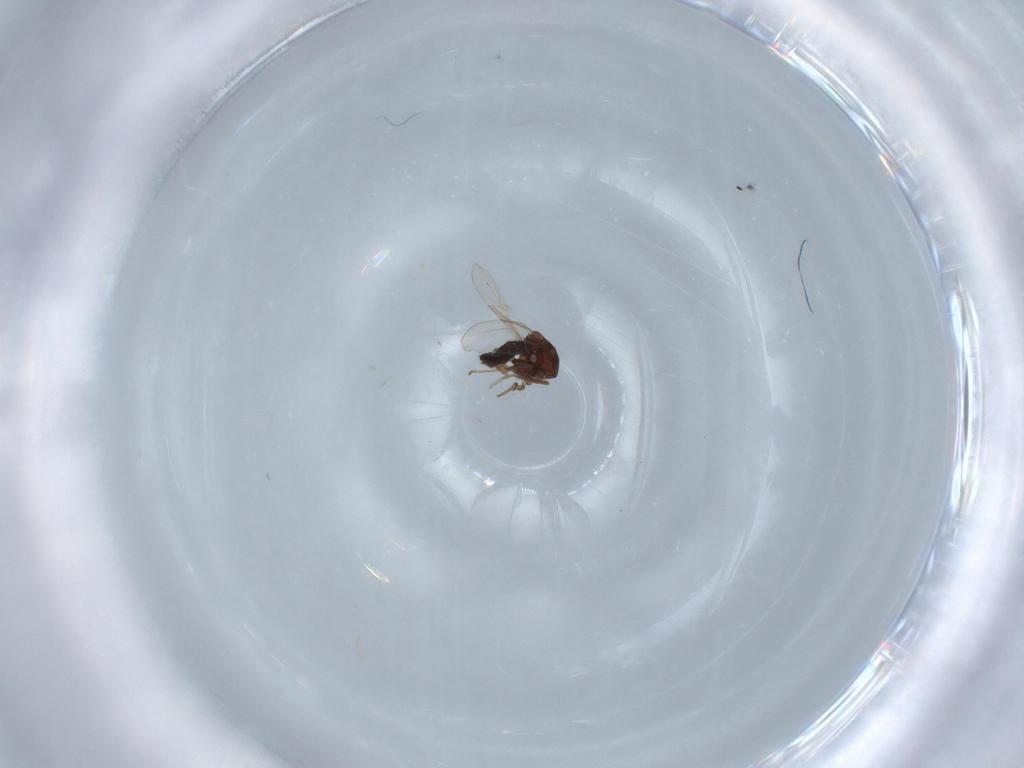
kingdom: Animalia
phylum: Arthropoda
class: Insecta
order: Diptera
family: Ceratopogonidae
